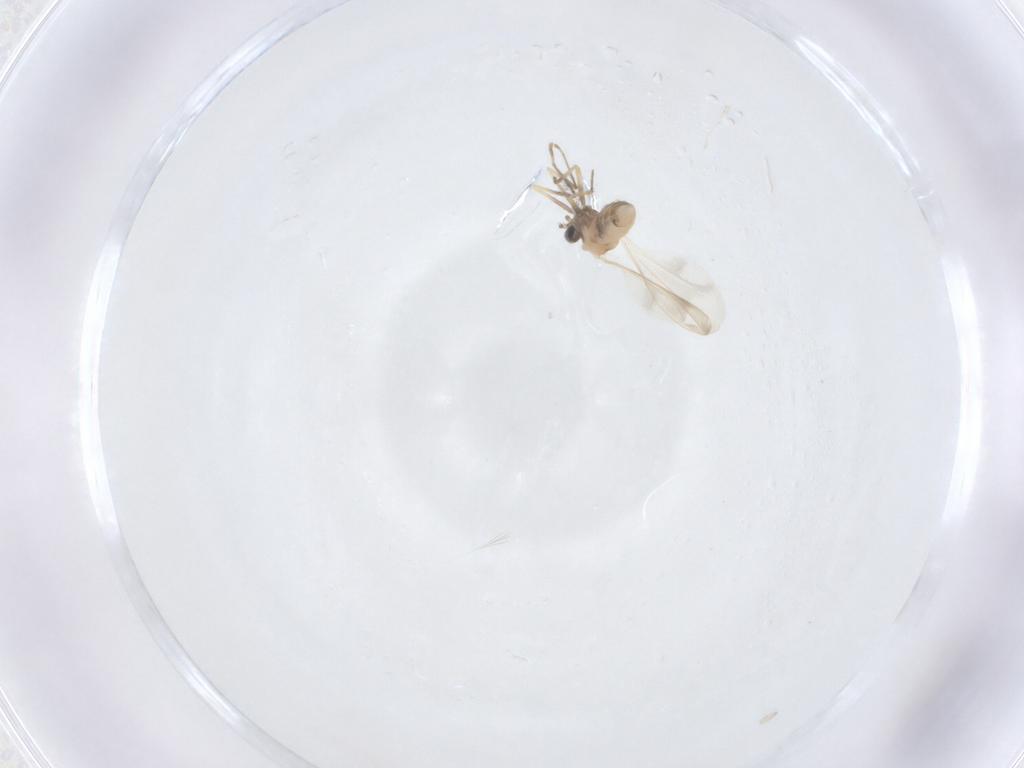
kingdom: Animalia
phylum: Arthropoda
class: Insecta
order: Diptera
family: Cecidomyiidae
